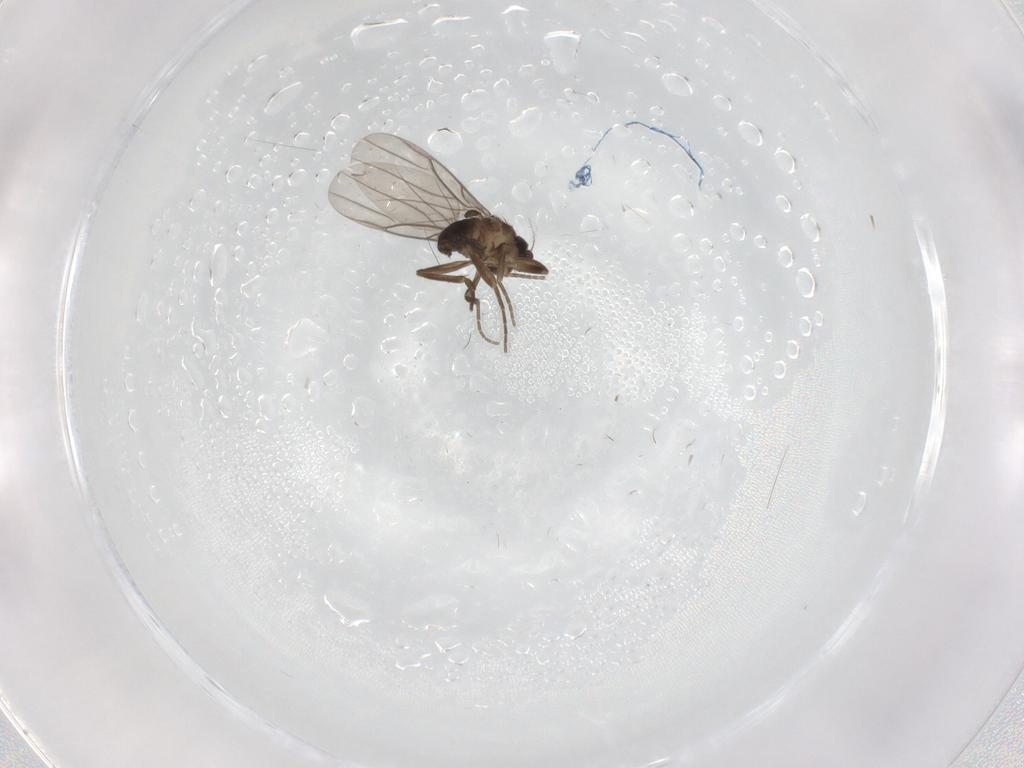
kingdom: Animalia
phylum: Arthropoda
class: Insecta
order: Diptera
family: Phoridae
